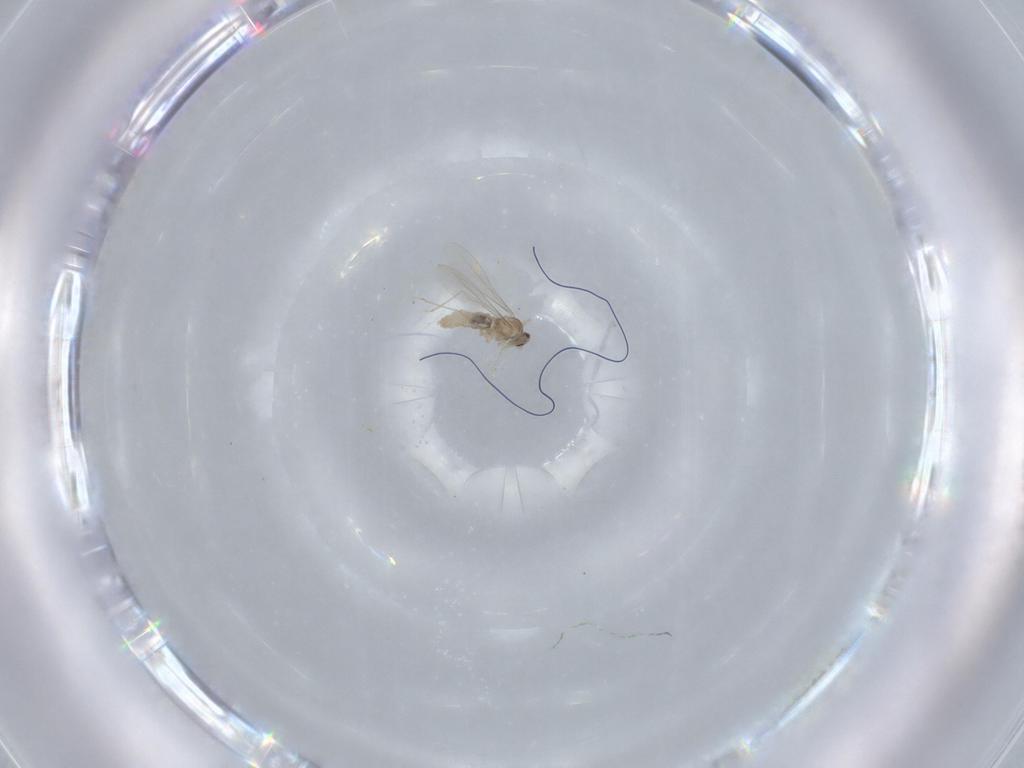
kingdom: Animalia
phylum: Arthropoda
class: Insecta
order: Diptera
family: Cecidomyiidae
